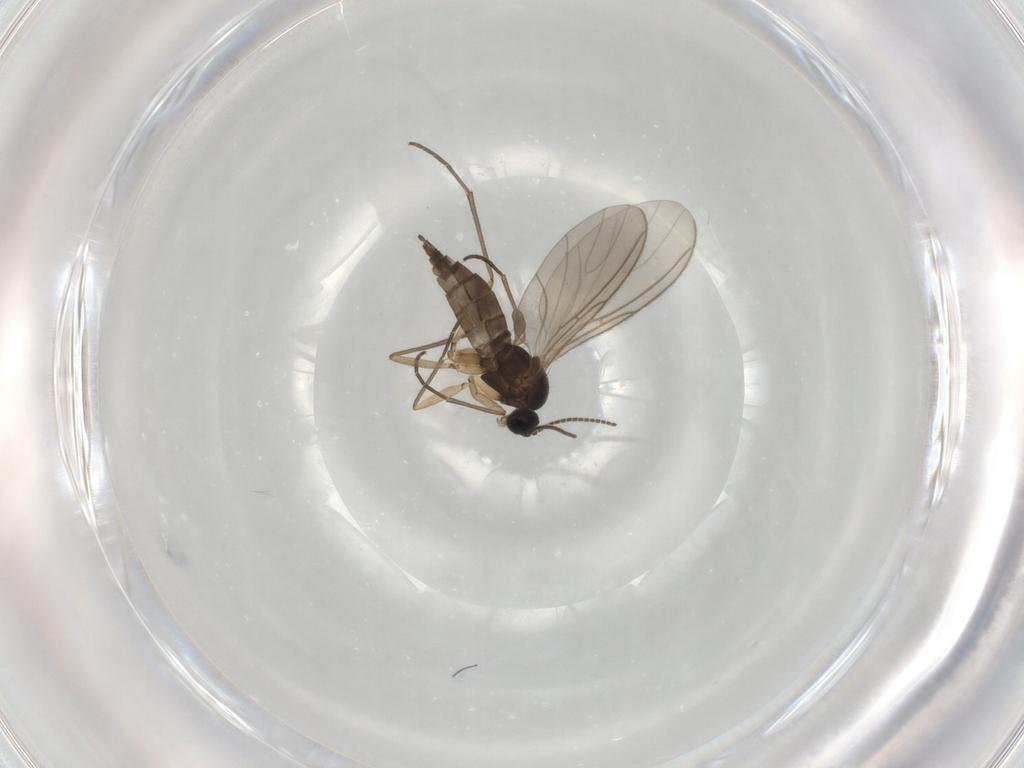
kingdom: Animalia
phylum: Arthropoda
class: Insecta
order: Diptera
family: Sciaridae
